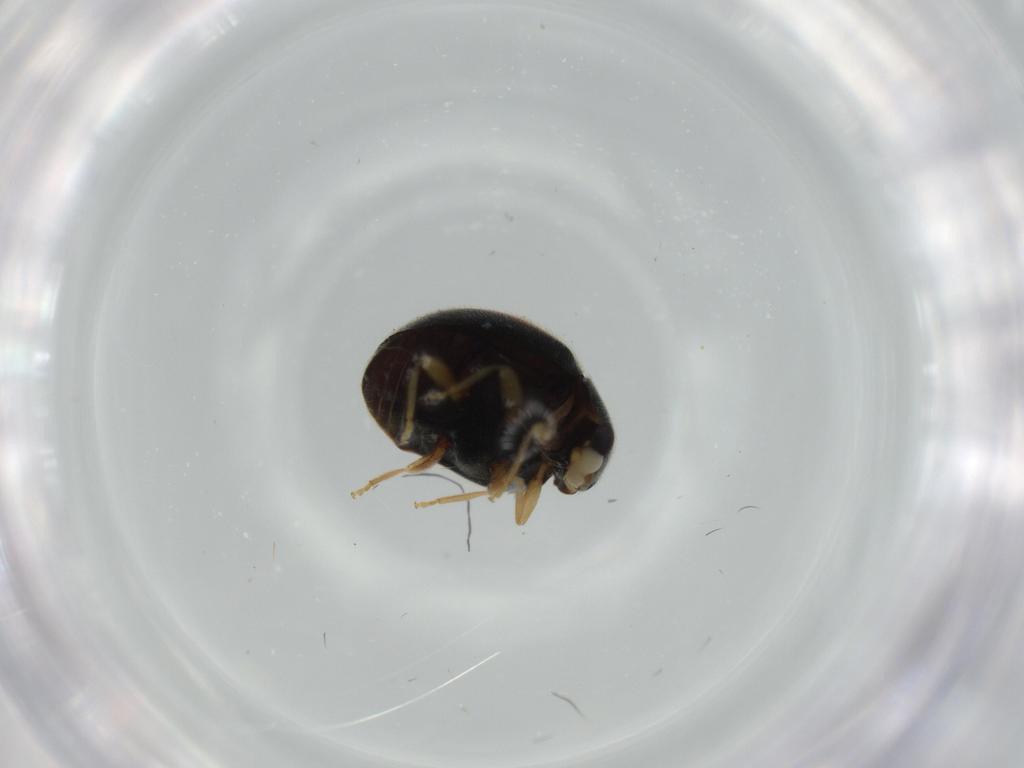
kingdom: Animalia
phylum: Arthropoda
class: Insecta
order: Coleoptera
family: Coccinellidae
